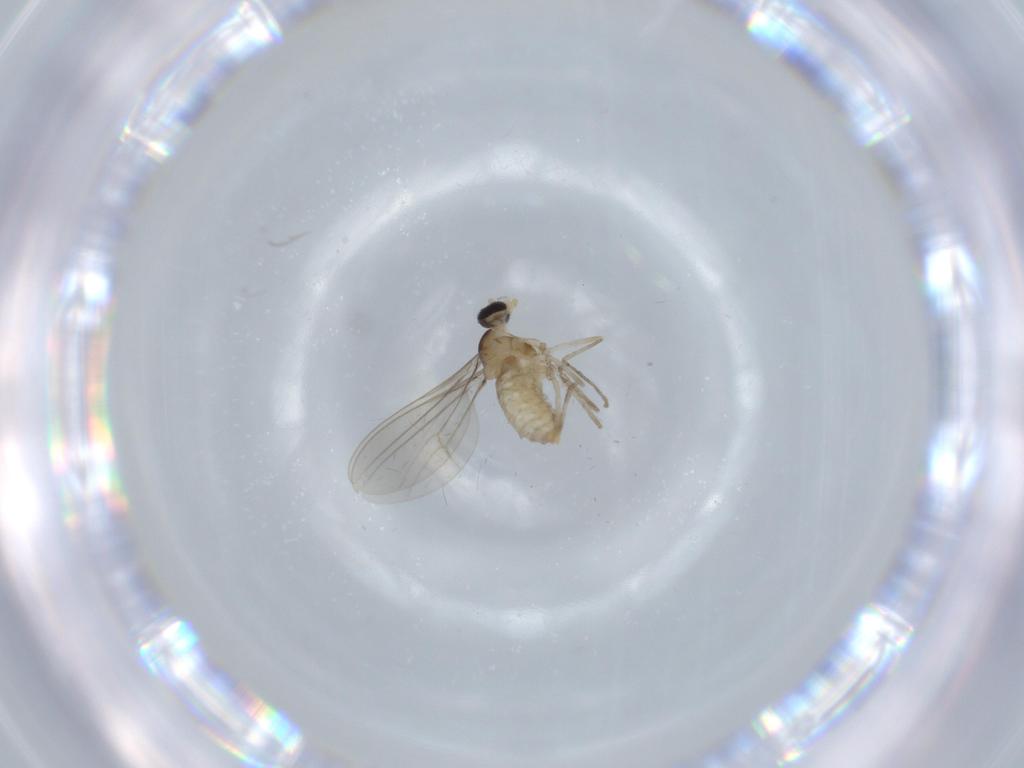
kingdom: Animalia
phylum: Arthropoda
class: Insecta
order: Diptera
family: Cecidomyiidae
